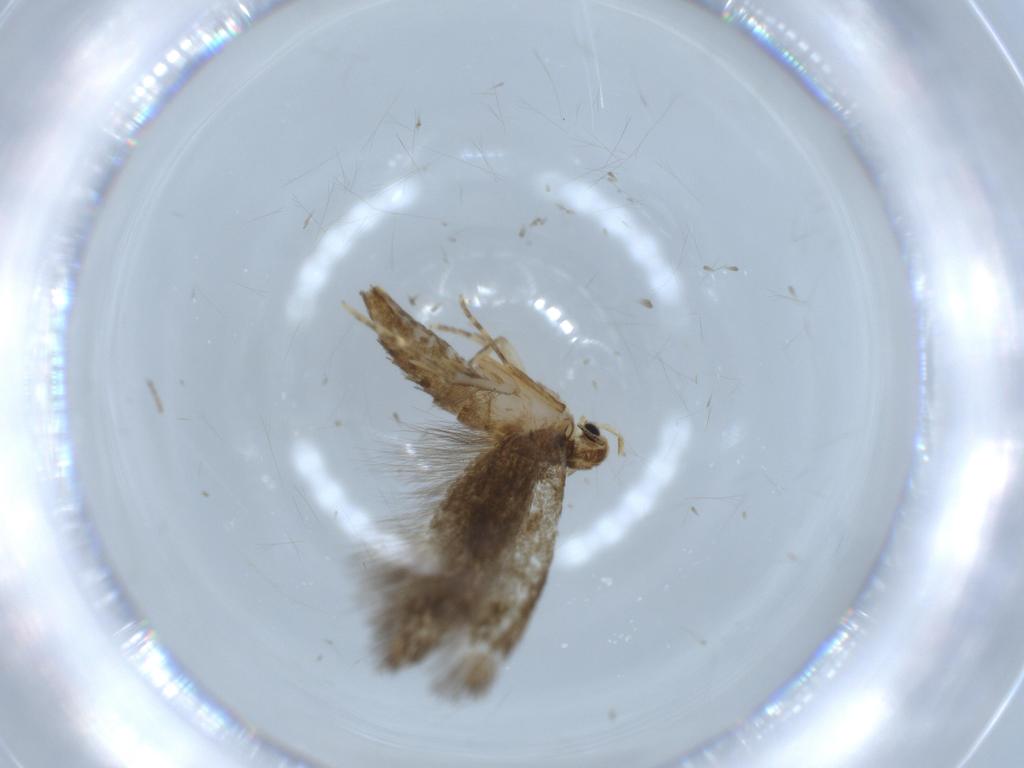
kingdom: Animalia
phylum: Arthropoda
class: Insecta
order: Lepidoptera
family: Tineidae
